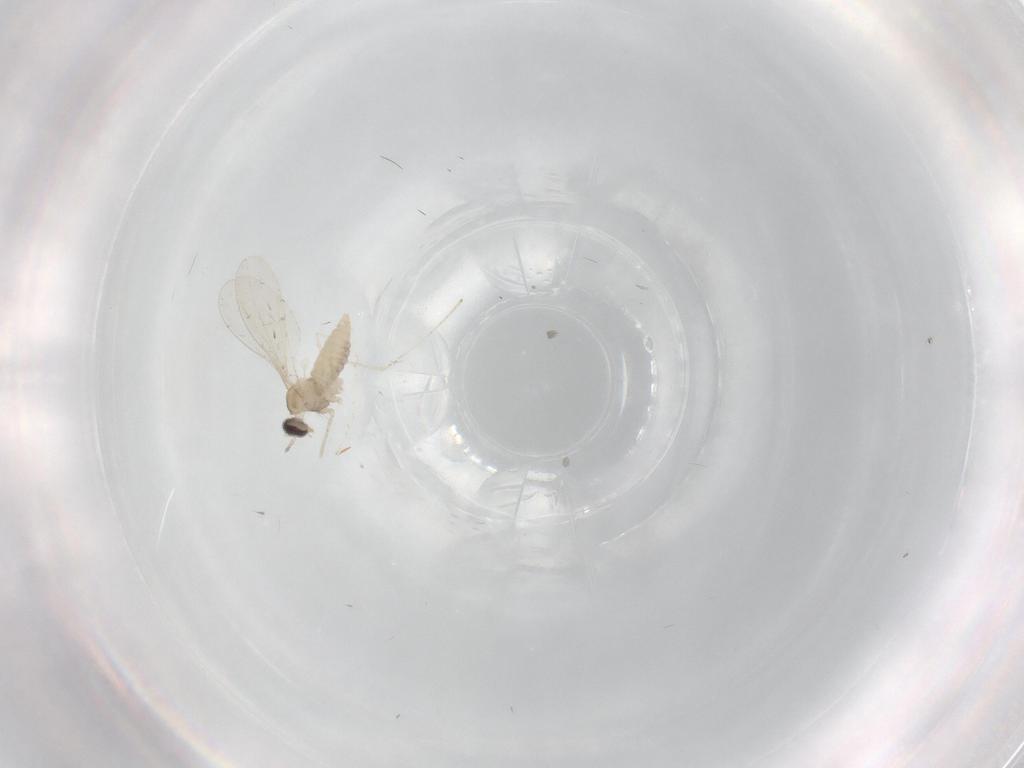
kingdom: Animalia
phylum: Arthropoda
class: Insecta
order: Diptera
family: Cecidomyiidae
